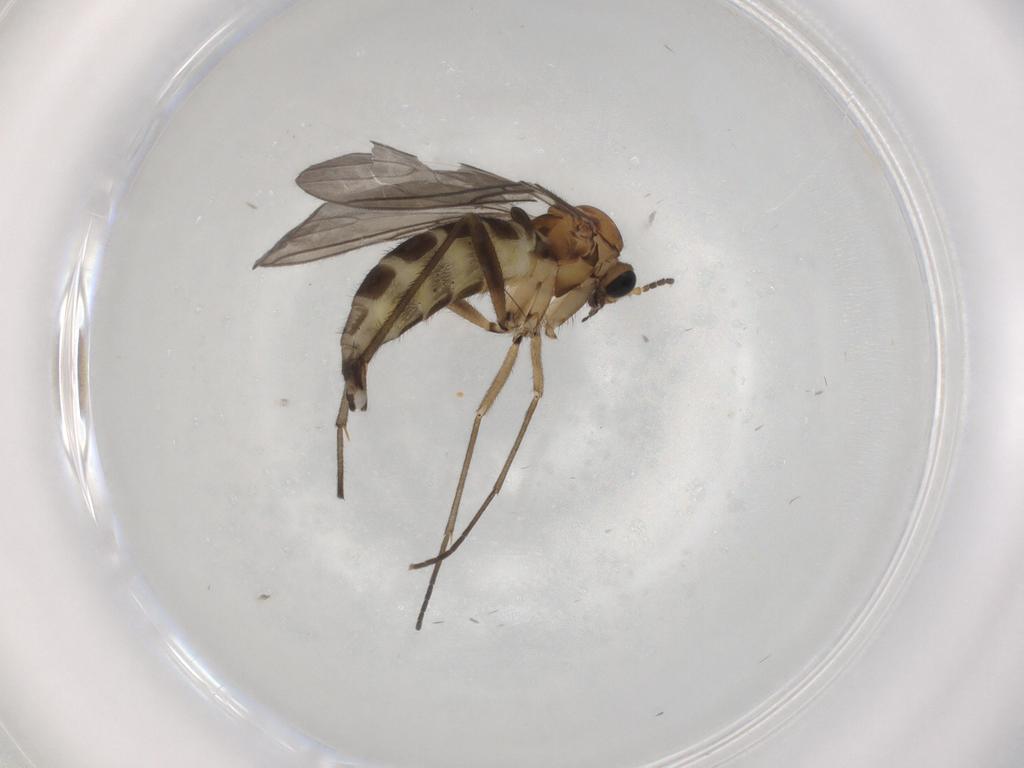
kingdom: Animalia
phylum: Arthropoda
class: Insecta
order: Diptera
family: Sciaridae
